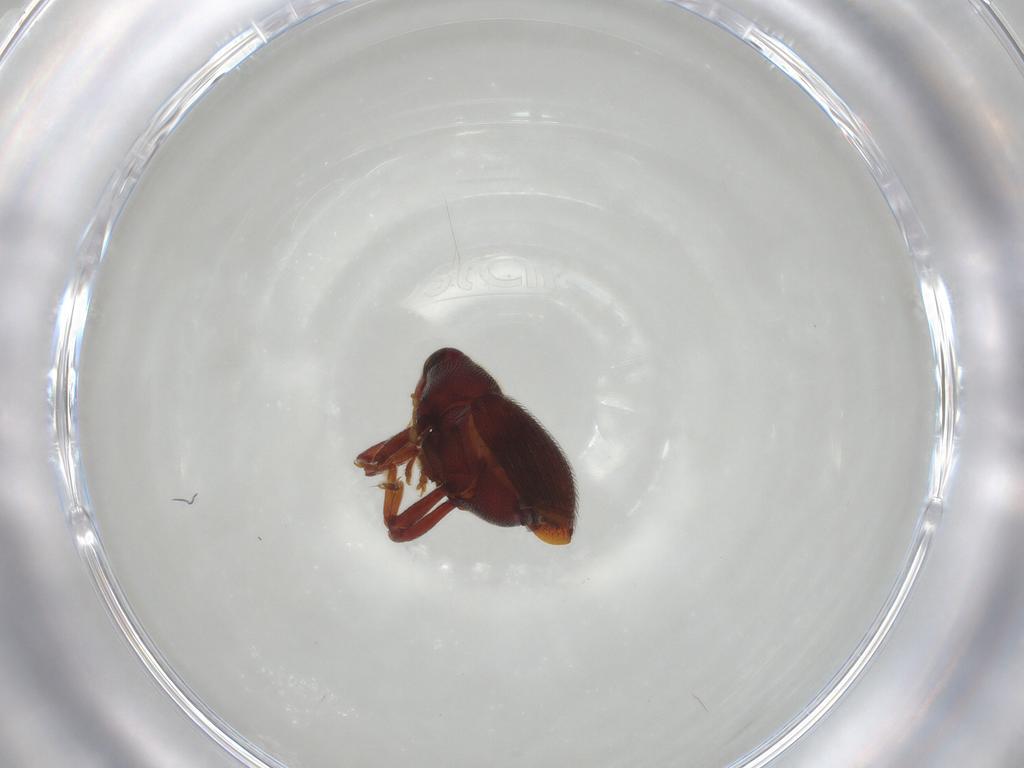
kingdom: Animalia
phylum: Arthropoda
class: Insecta
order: Coleoptera
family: Curculionidae
